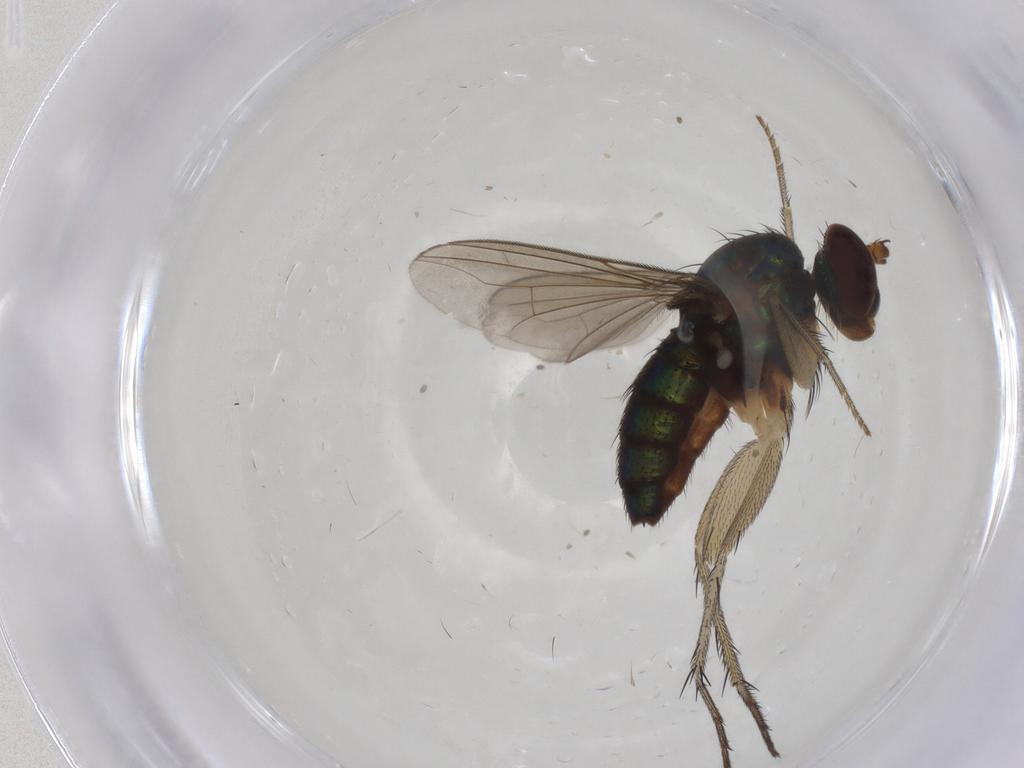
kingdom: Animalia
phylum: Arthropoda
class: Insecta
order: Diptera
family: Dolichopodidae
